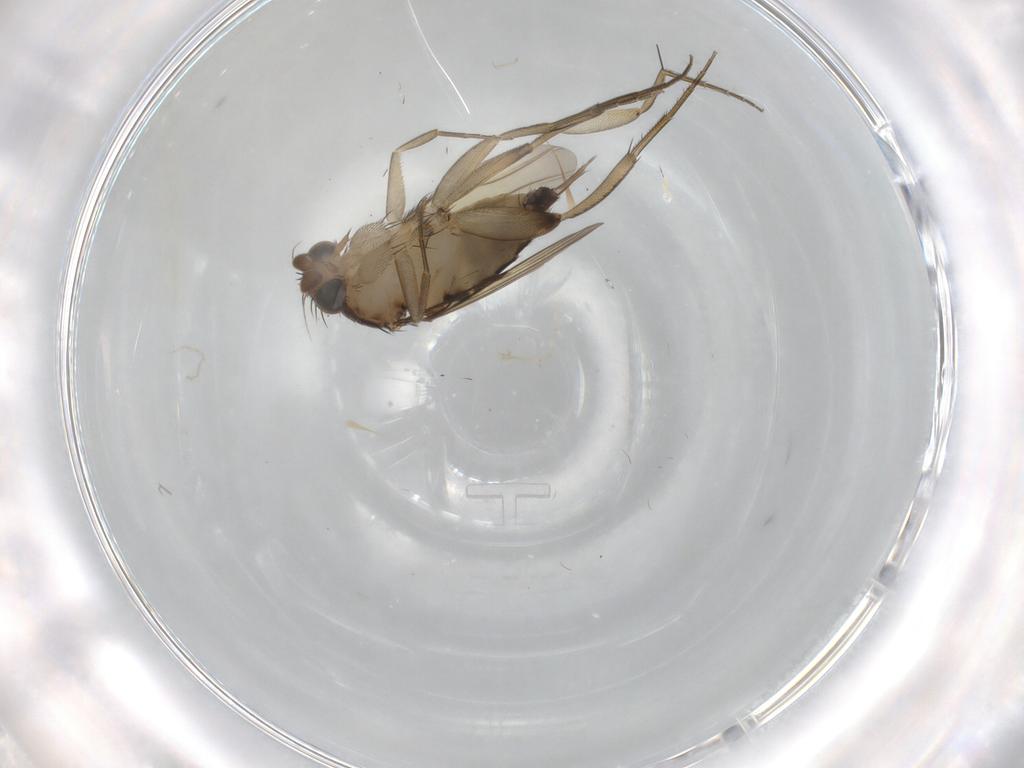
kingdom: Animalia
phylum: Arthropoda
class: Insecta
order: Diptera
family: Phoridae
